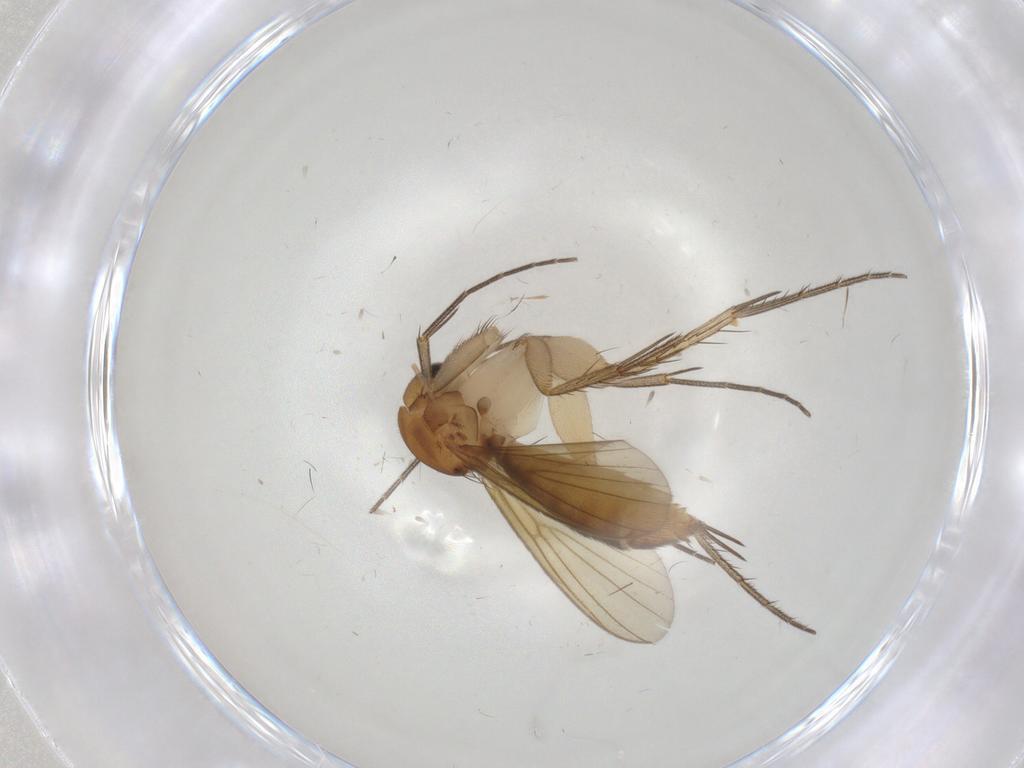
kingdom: Animalia
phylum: Arthropoda
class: Insecta
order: Diptera
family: Mycetophilidae
